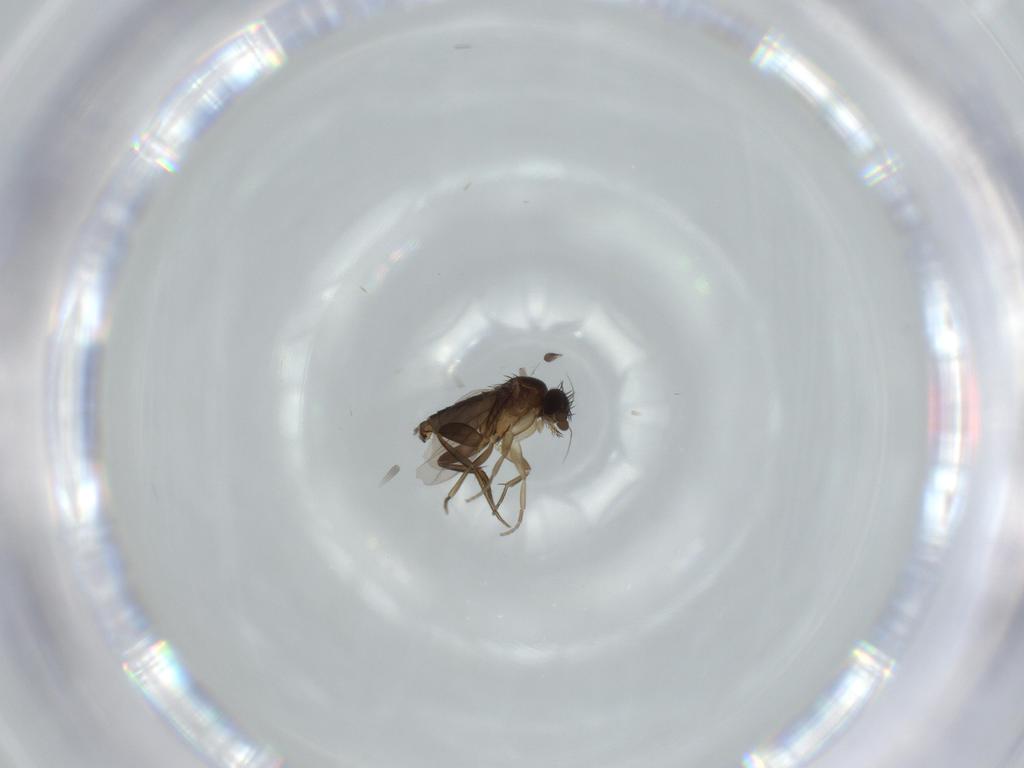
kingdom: Animalia
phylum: Arthropoda
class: Insecta
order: Diptera
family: Phoridae
